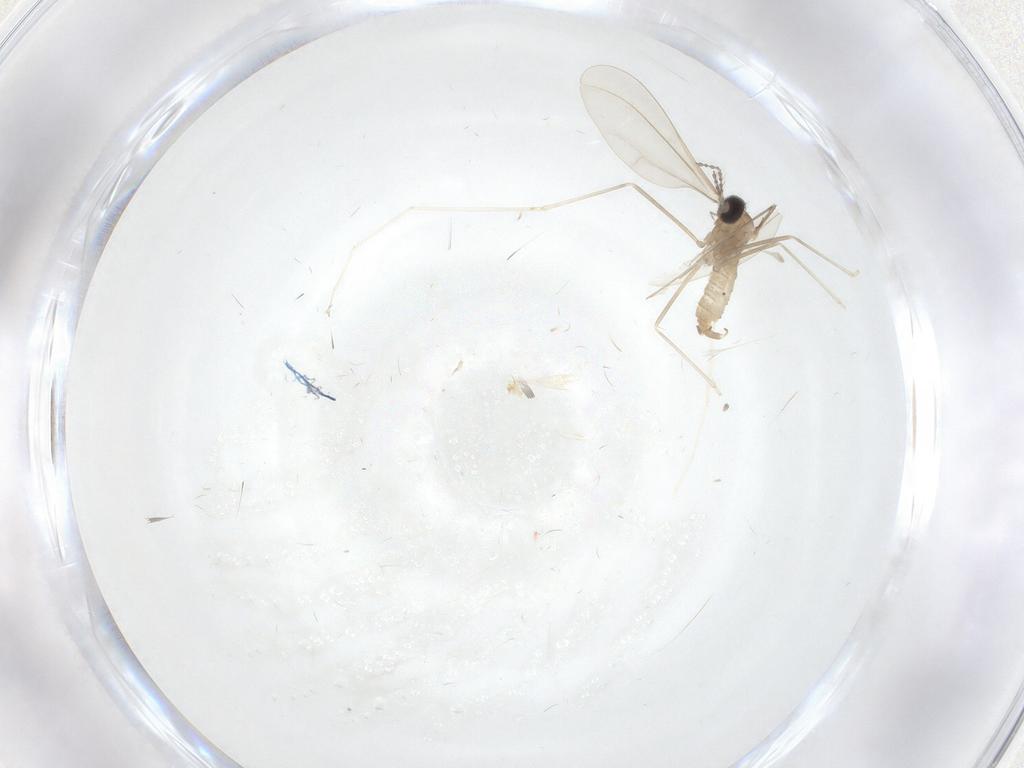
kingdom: Animalia
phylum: Arthropoda
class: Insecta
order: Diptera
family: Cecidomyiidae
